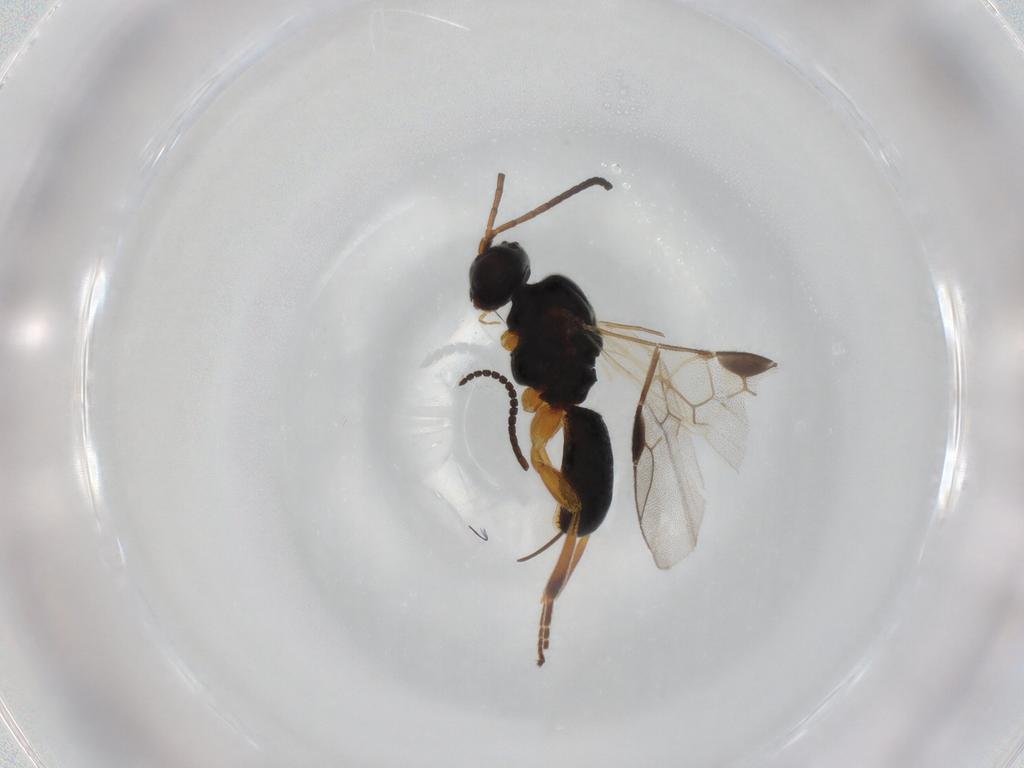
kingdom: Animalia
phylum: Arthropoda
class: Insecta
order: Hymenoptera
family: Braconidae
